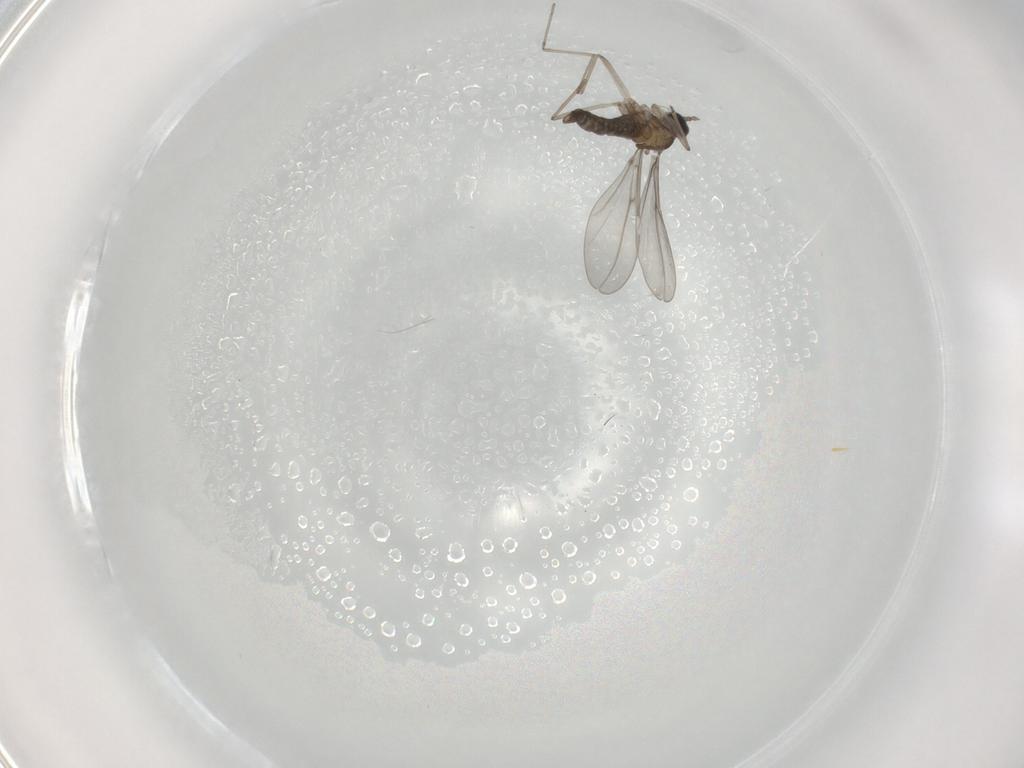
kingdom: Animalia
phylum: Arthropoda
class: Insecta
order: Diptera
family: Cecidomyiidae
